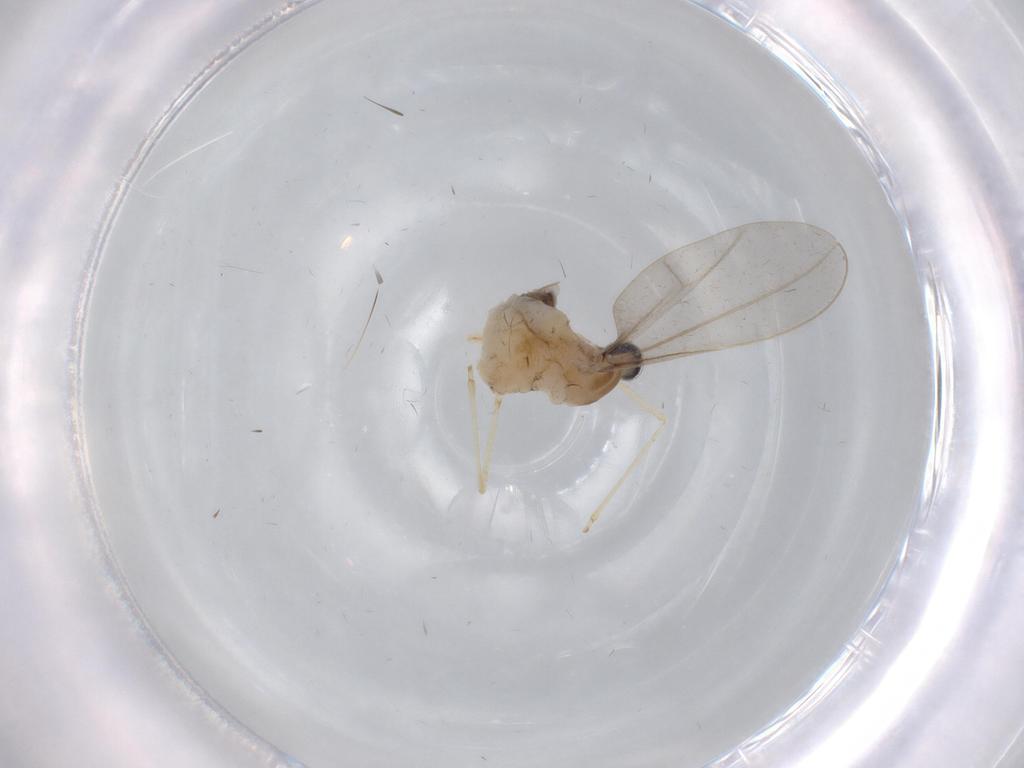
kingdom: Animalia
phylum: Arthropoda
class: Insecta
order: Diptera
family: Cecidomyiidae
